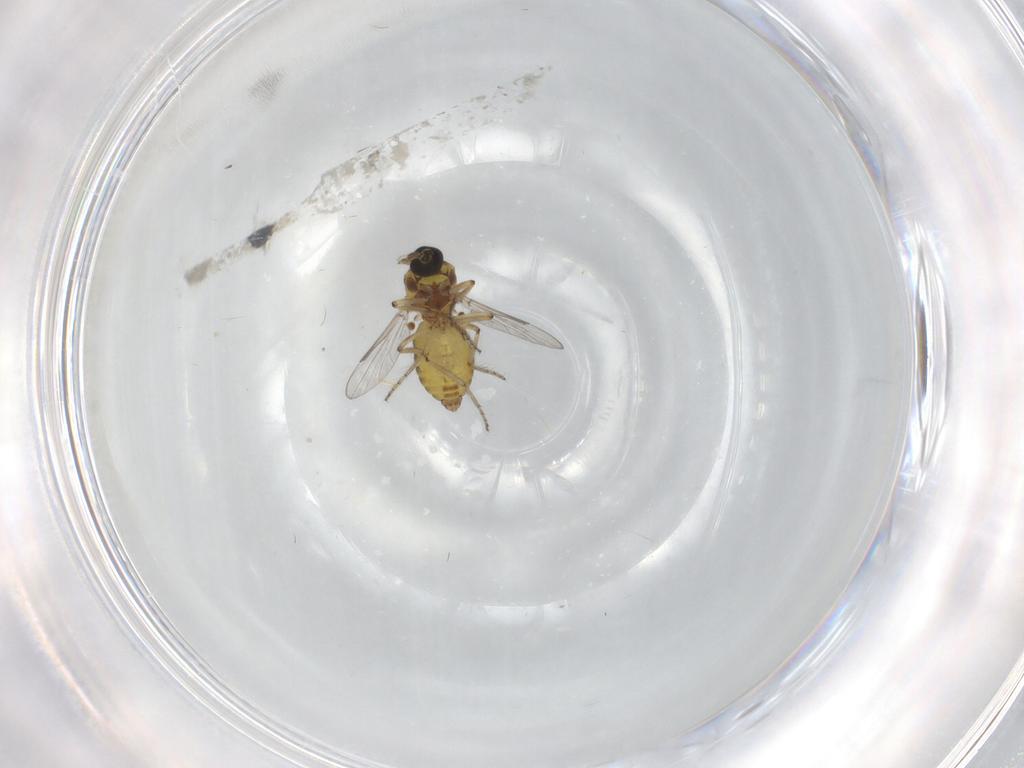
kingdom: Animalia
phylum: Arthropoda
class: Insecta
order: Diptera
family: Ceratopogonidae
